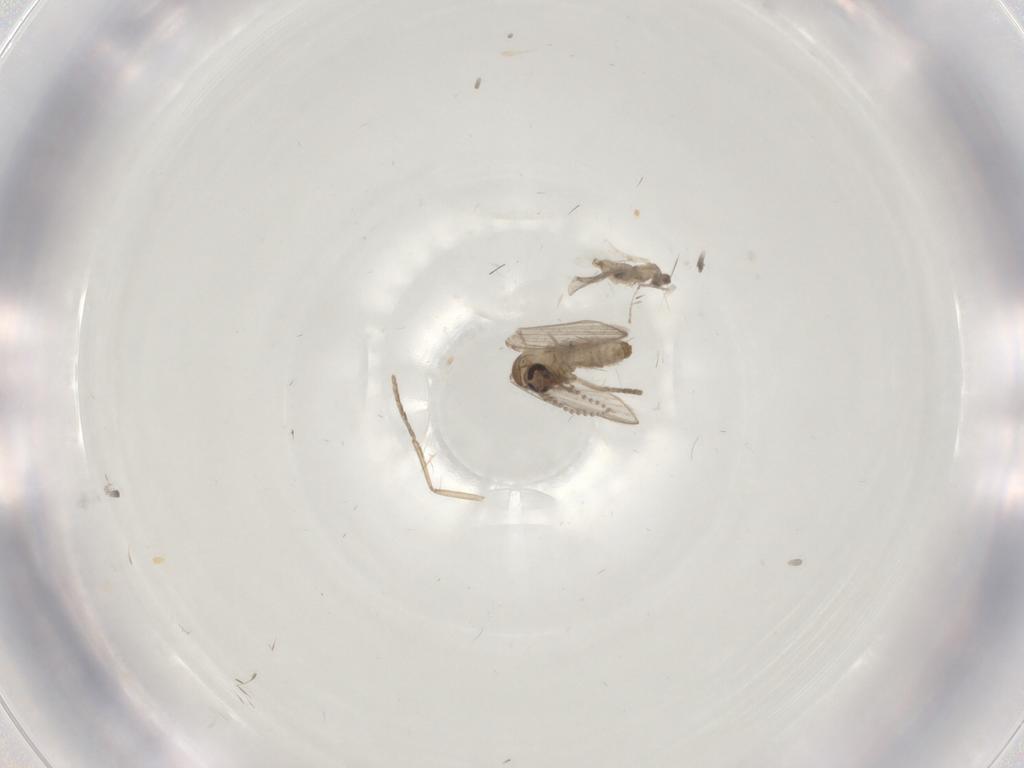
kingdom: Animalia
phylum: Arthropoda
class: Insecta
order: Diptera
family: Psychodidae
